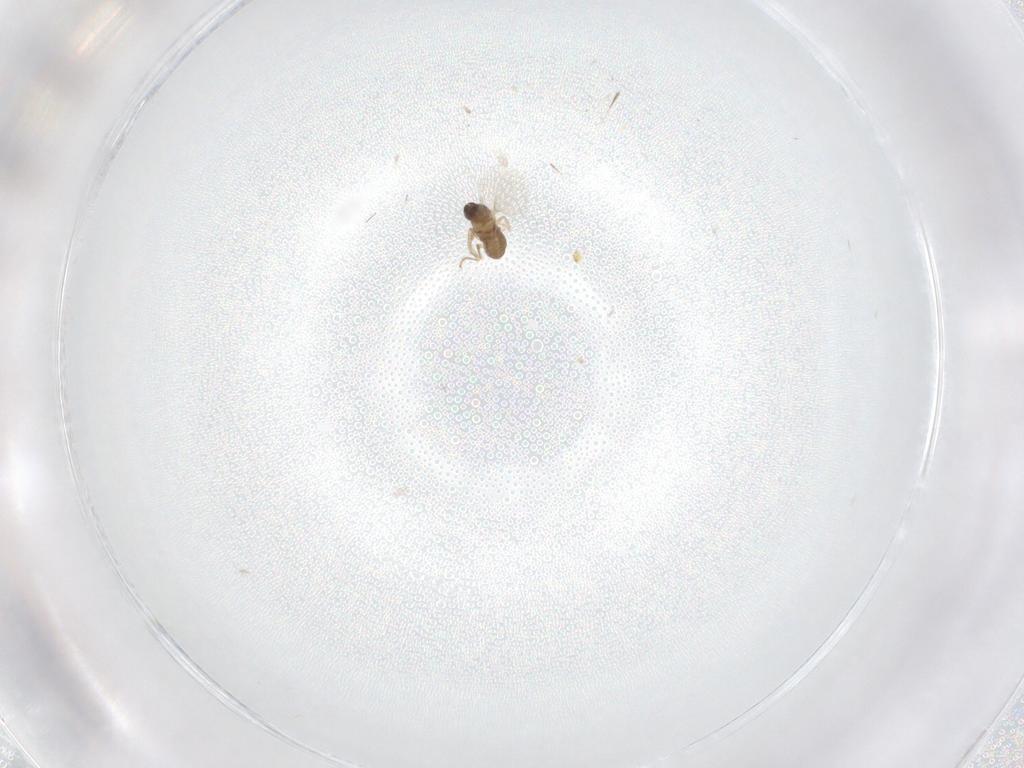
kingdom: Animalia
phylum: Arthropoda
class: Insecta
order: Diptera
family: Cecidomyiidae
